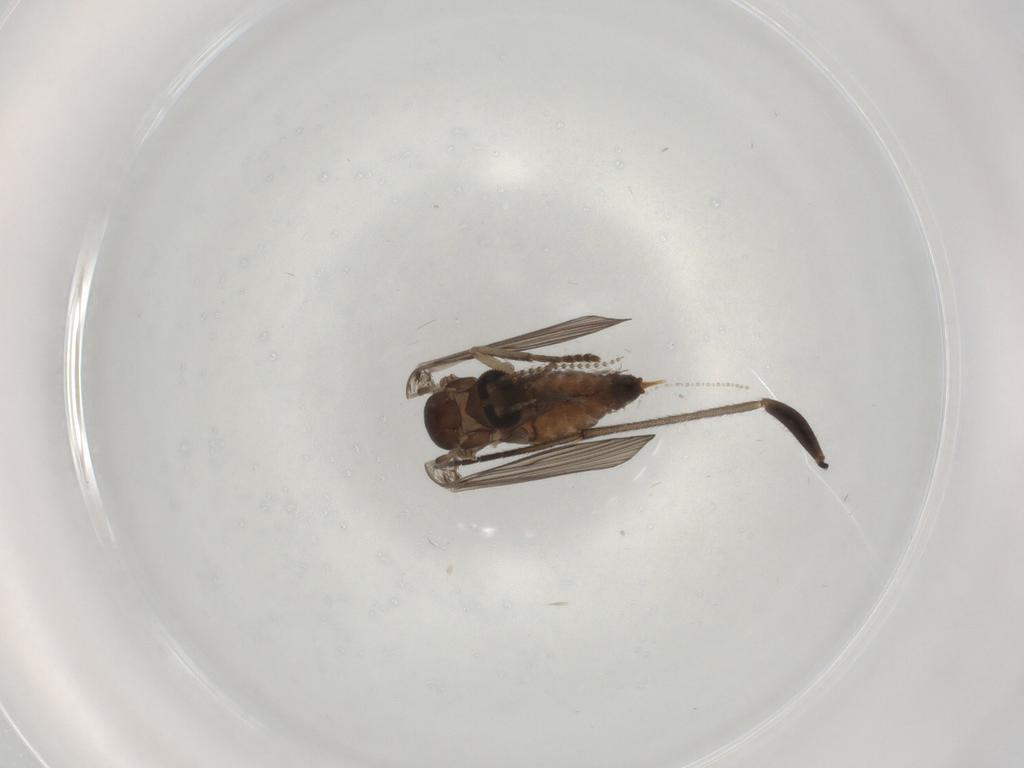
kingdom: Animalia
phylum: Arthropoda
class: Insecta
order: Diptera
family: Psychodidae
